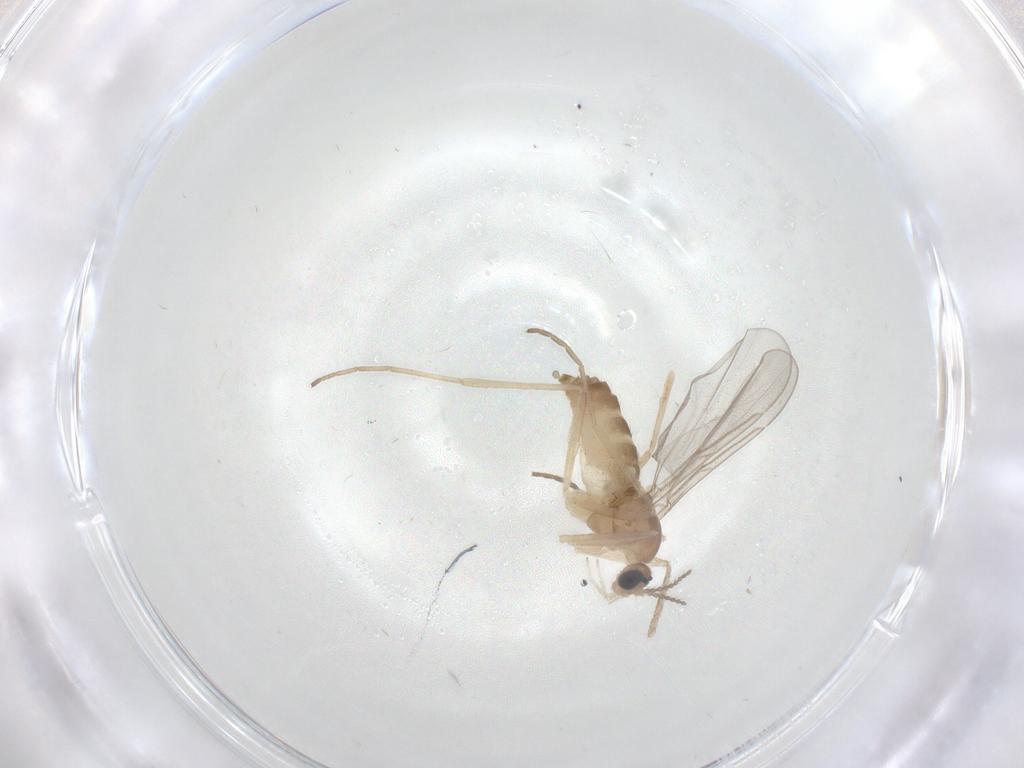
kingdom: Animalia
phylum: Arthropoda
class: Insecta
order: Diptera
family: Cecidomyiidae
